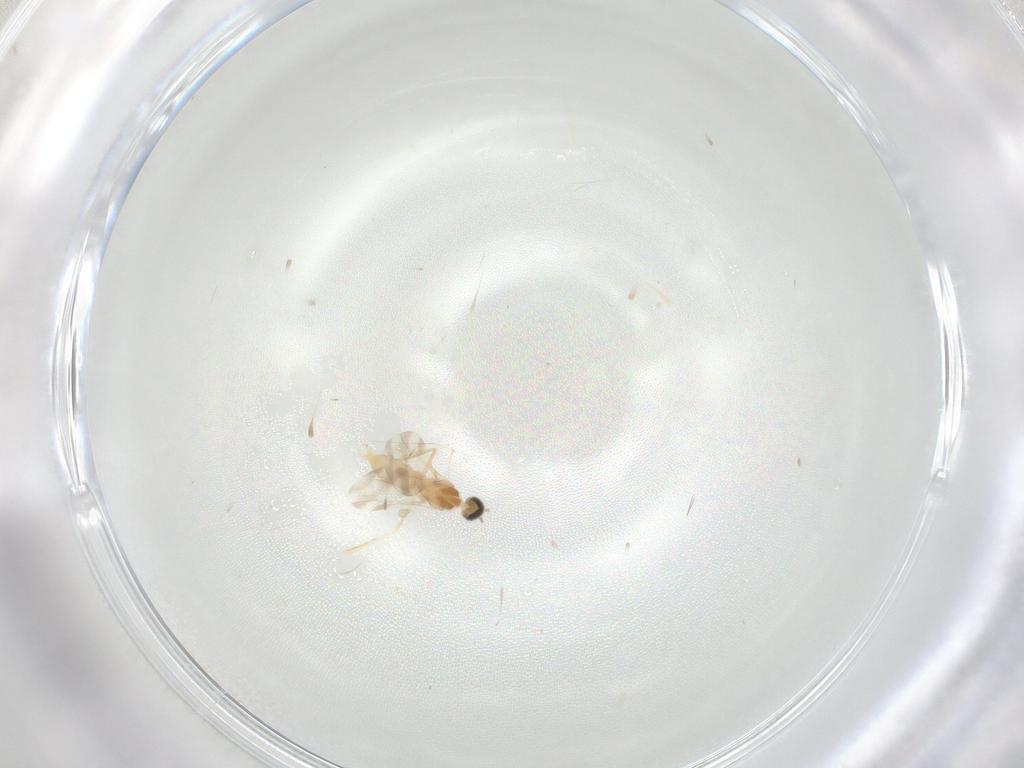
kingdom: Animalia
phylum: Arthropoda
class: Insecta
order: Diptera
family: Cecidomyiidae
